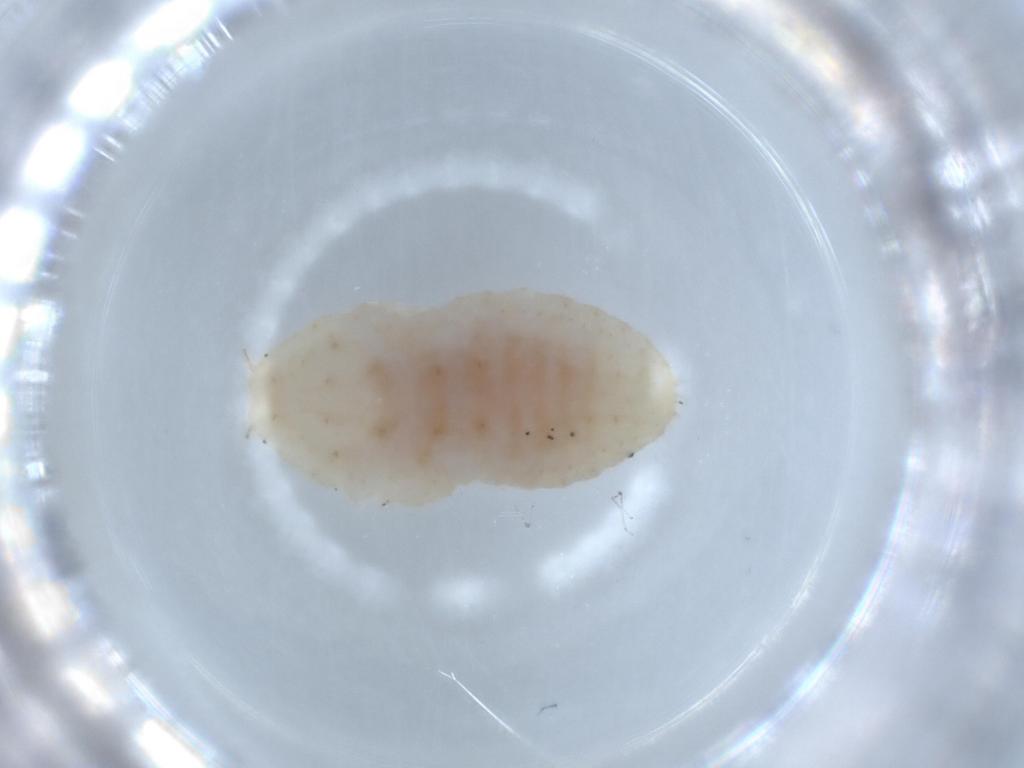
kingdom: Animalia
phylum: Arthropoda
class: Insecta
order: Hemiptera
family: Pseudococcidae
